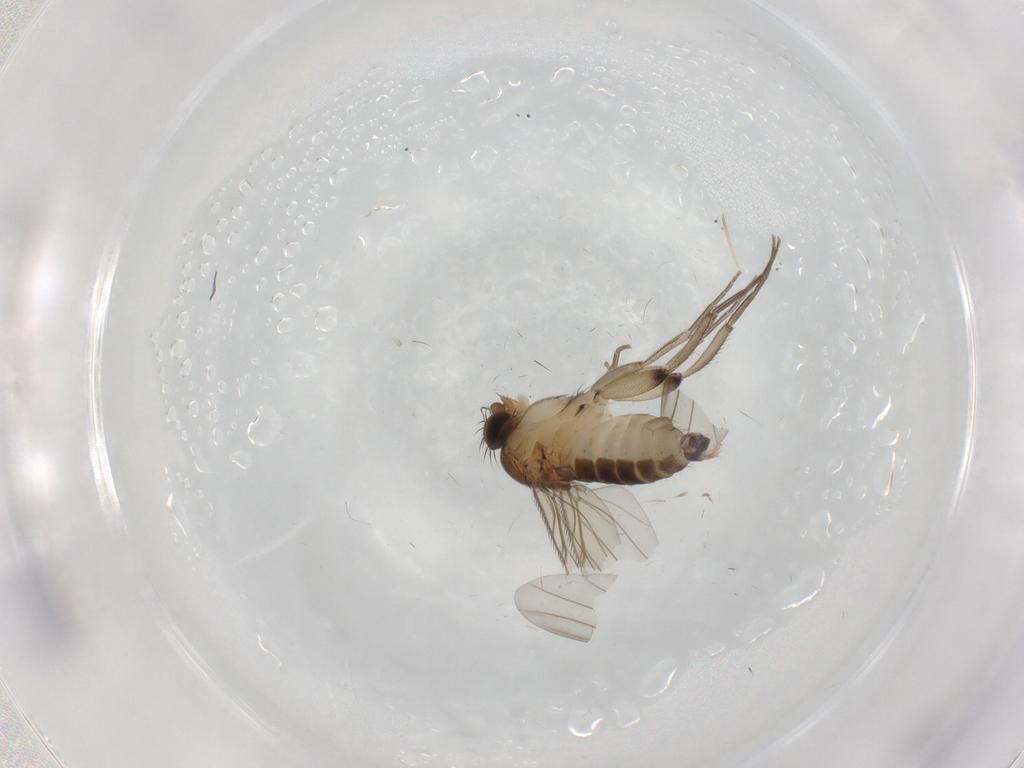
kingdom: Animalia
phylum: Arthropoda
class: Insecta
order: Diptera
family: Phoridae
